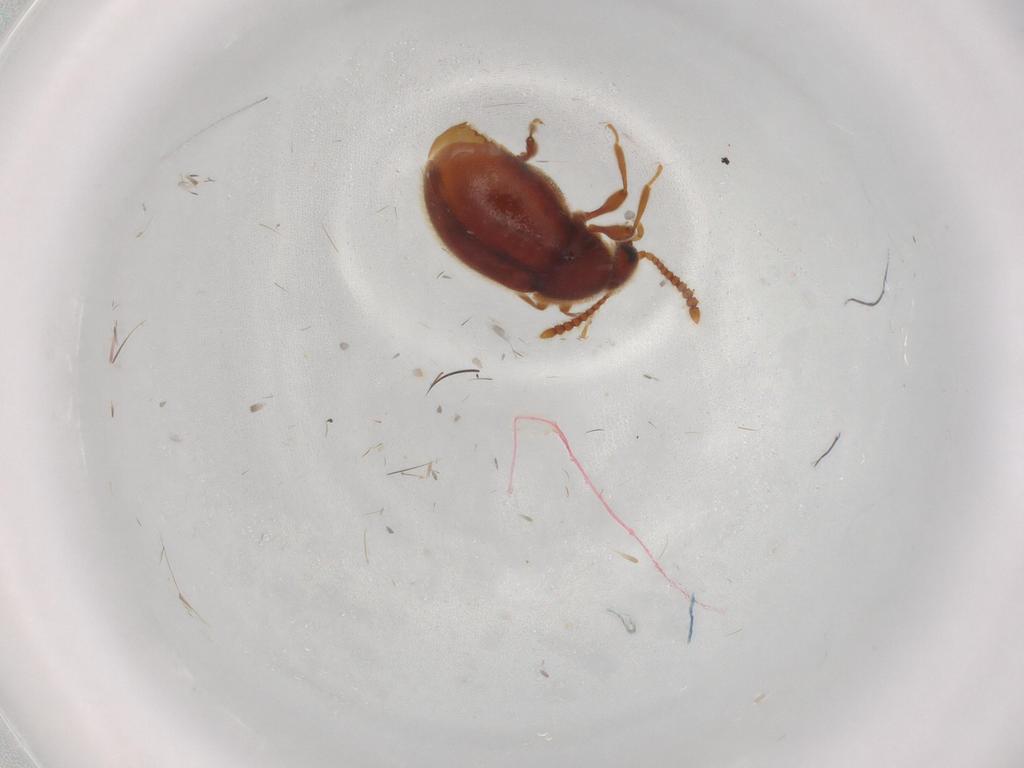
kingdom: Animalia
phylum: Arthropoda
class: Insecta
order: Coleoptera
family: Staphylinidae
